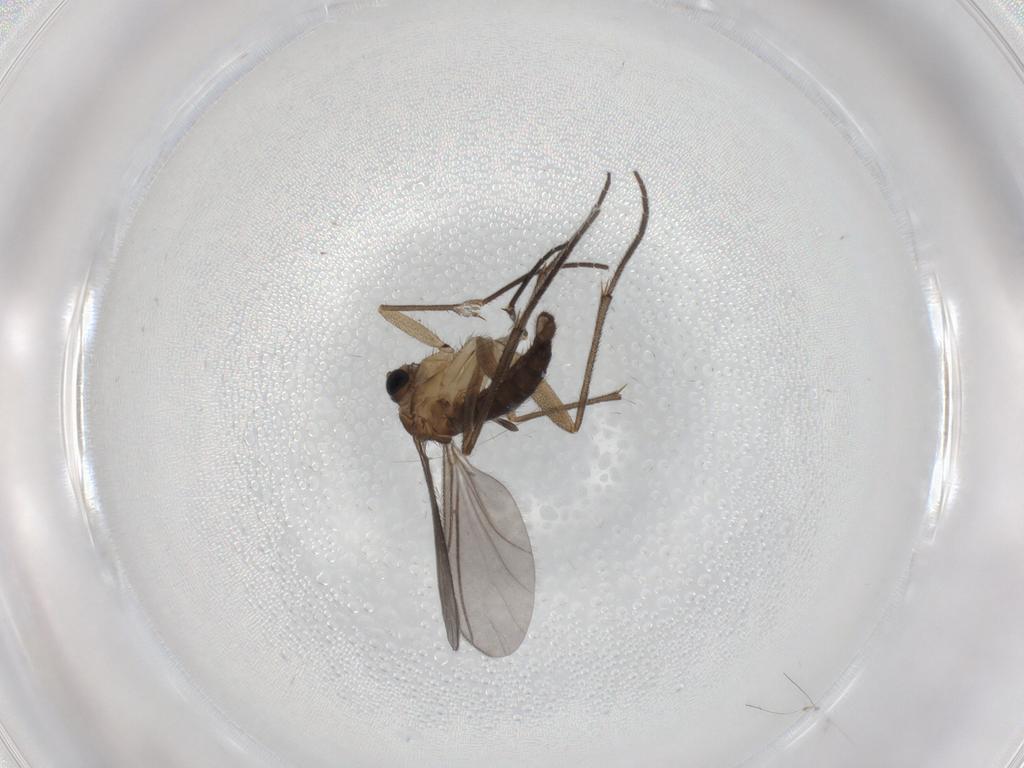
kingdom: Animalia
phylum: Arthropoda
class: Insecta
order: Diptera
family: Sciaridae
